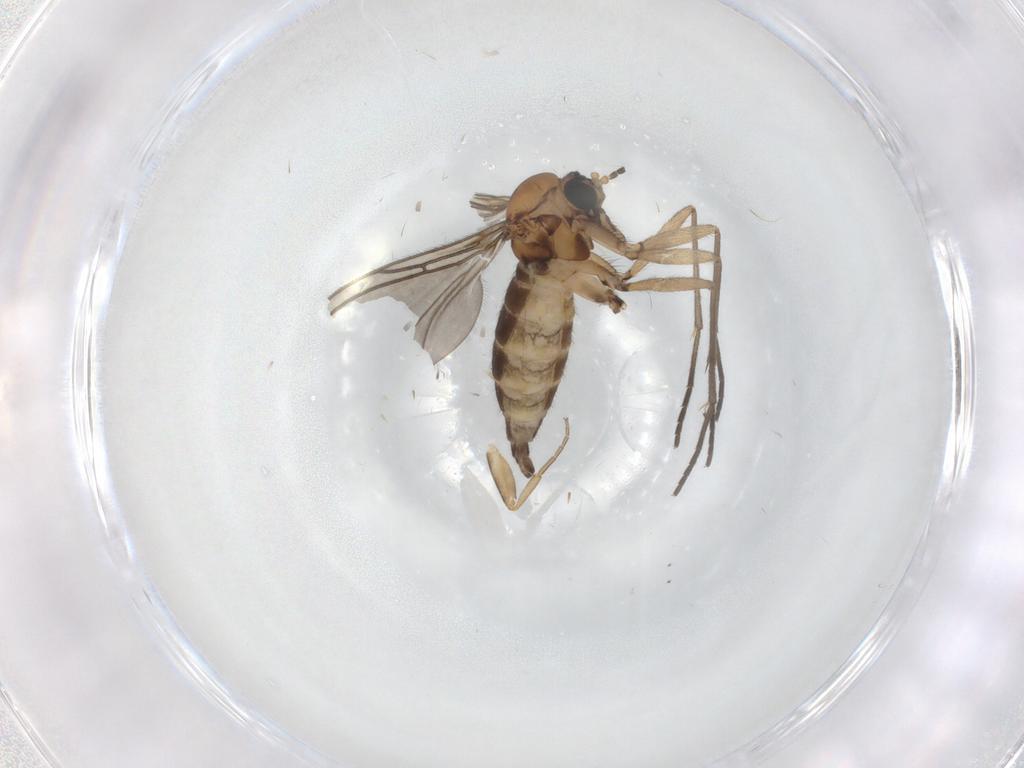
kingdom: Animalia
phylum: Arthropoda
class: Insecta
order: Diptera
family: Sciaridae
